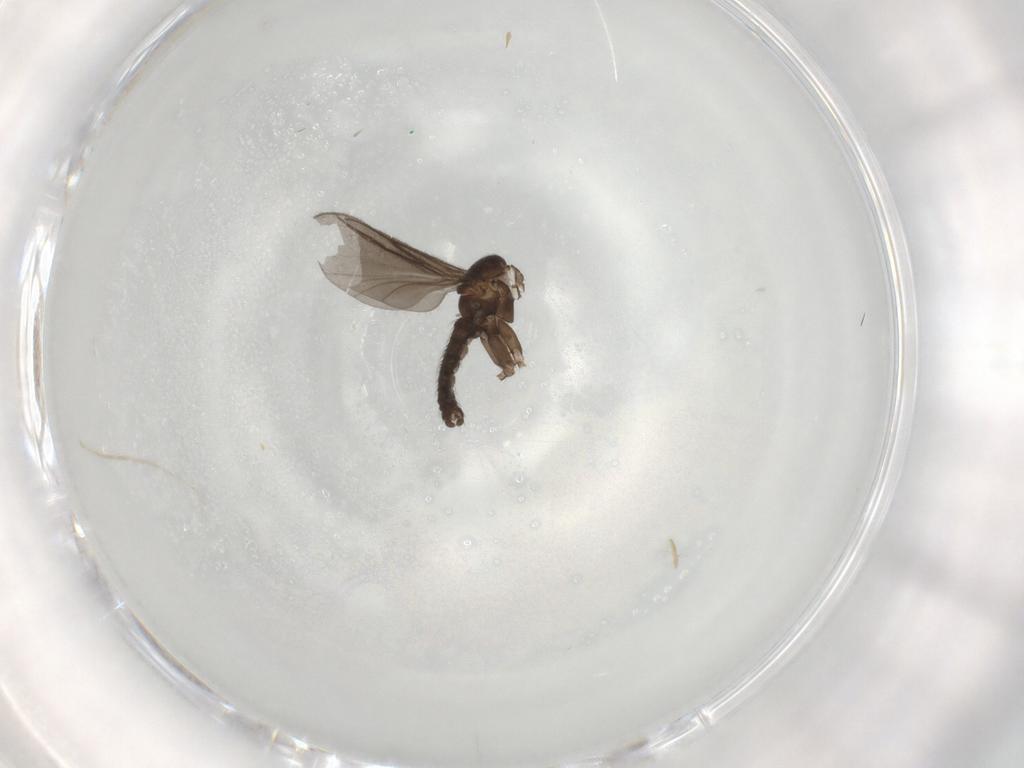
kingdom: Animalia
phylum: Arthropoda
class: Insecta
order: Diptera
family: Sciaridae
